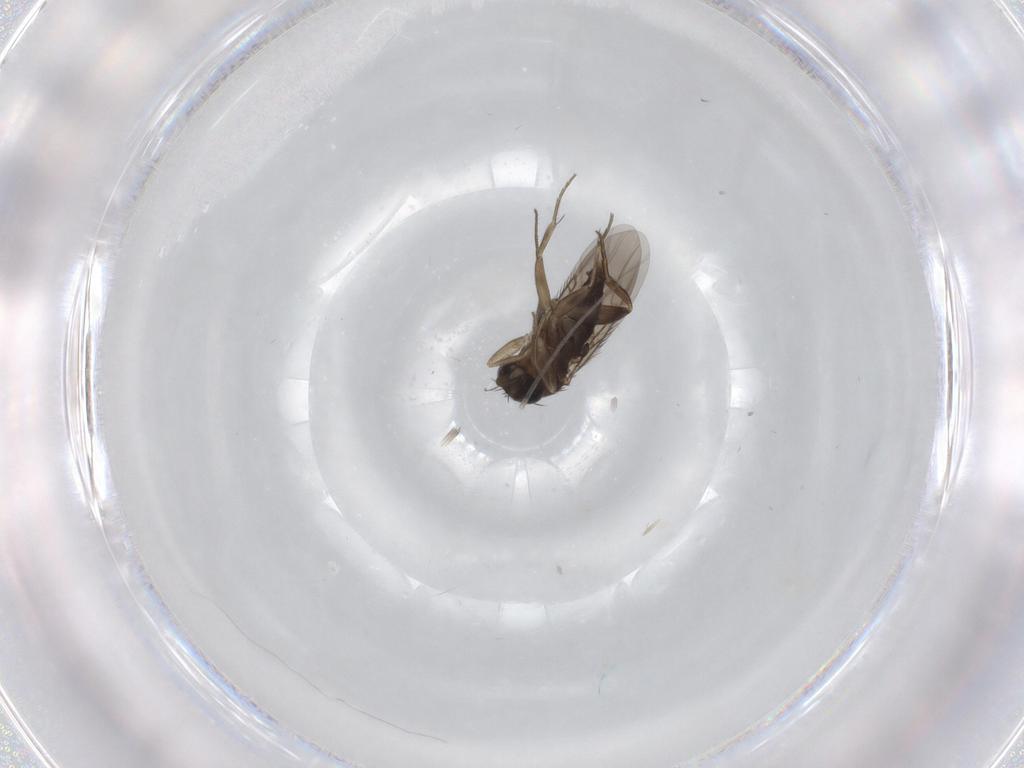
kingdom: Animalia
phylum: Arthropoda
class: Insecta
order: Diptera
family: Phoridae
